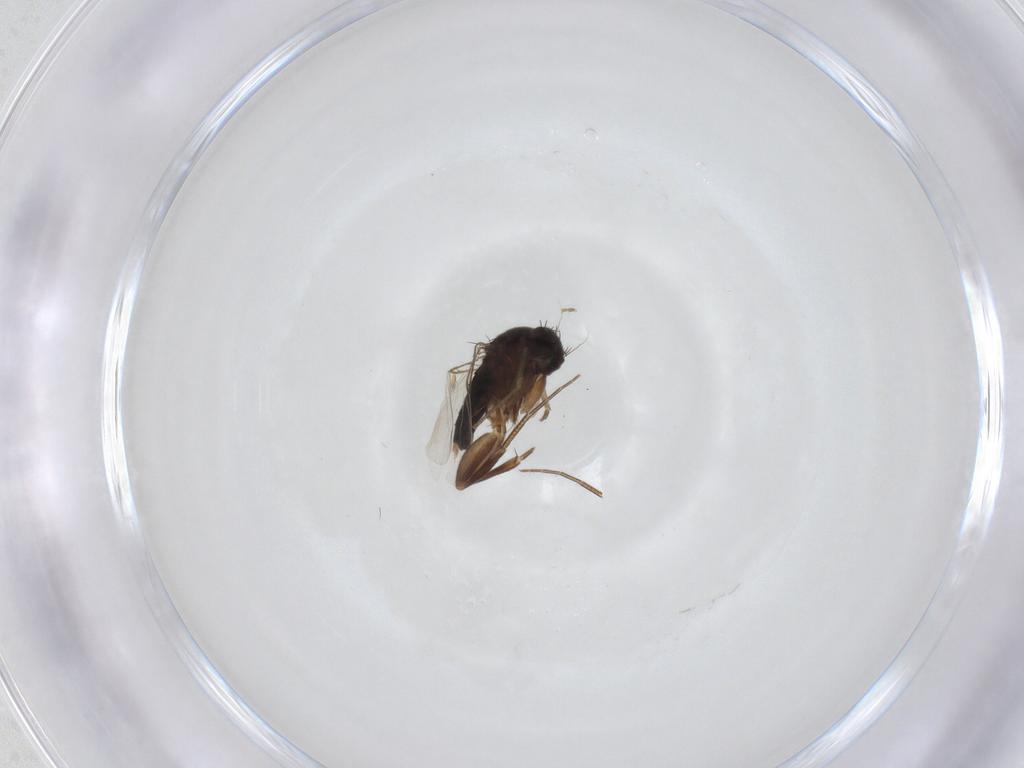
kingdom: Animalia
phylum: Arthropoda
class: Insecta
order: Diptera
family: Phoridae
